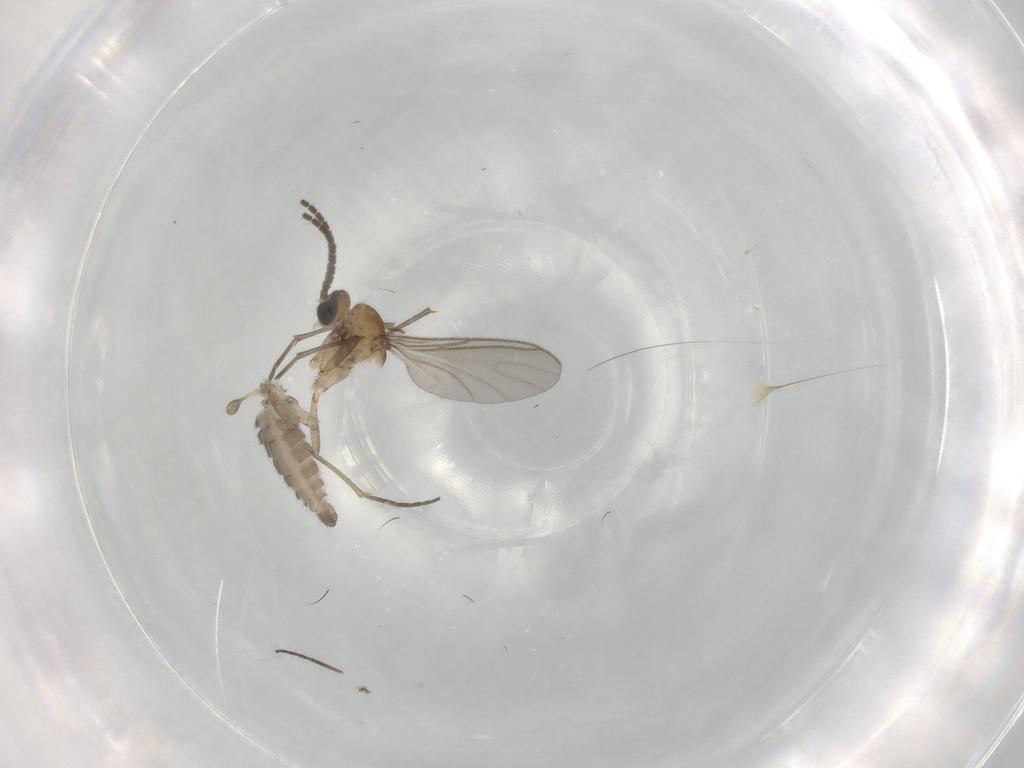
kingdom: Animalia
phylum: Arthropoda
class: Insecta
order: Diptera
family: Sciaridae
